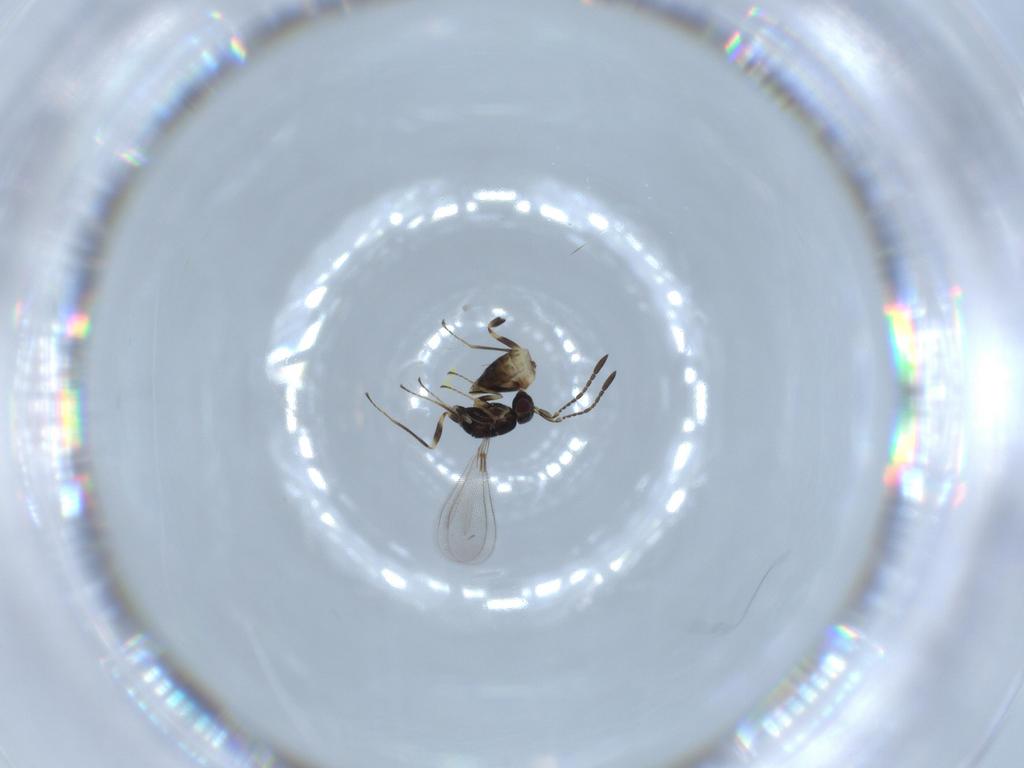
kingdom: Animalia
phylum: Arthropoda
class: Insecta
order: Hymenoptera
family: Mymaridae
